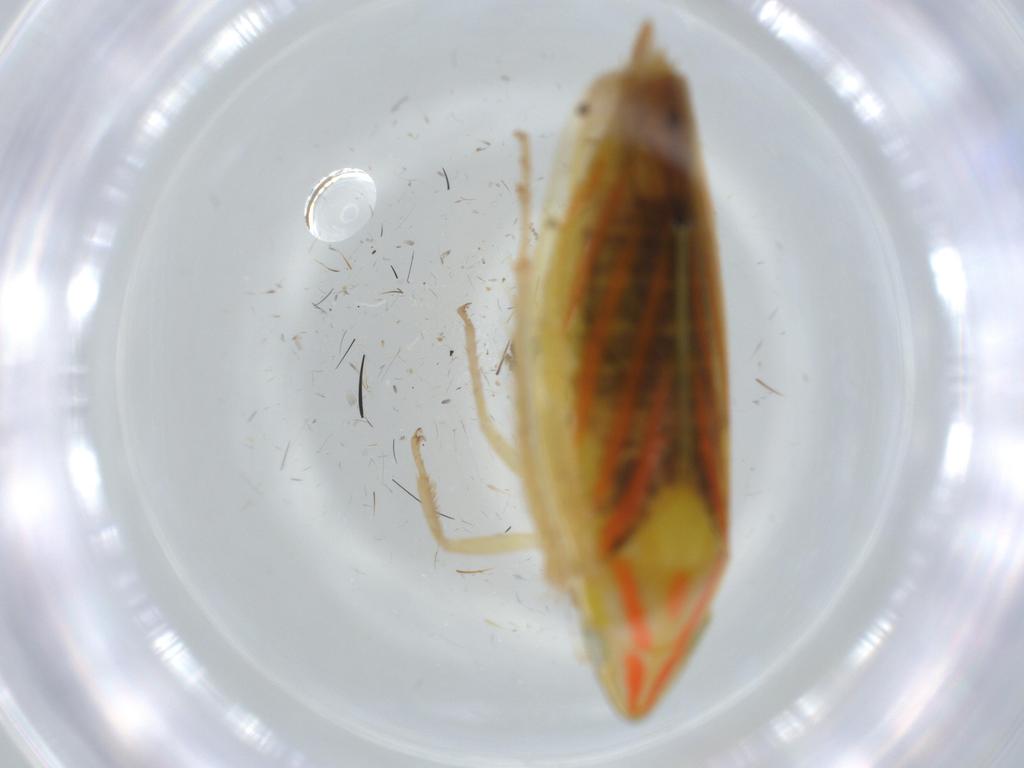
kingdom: Animalia
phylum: Arthropoda
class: Insecta
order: Hemiptera
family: Cicadellidae
